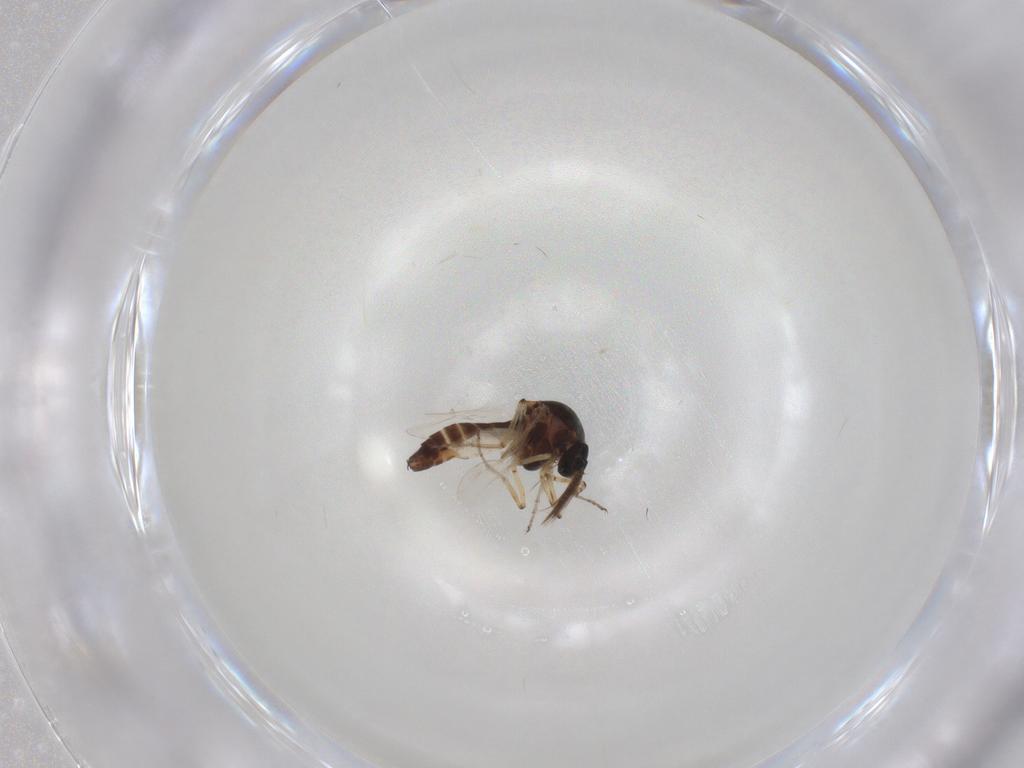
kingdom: Animalia
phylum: Arthropoda
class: Insecta
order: Diptera
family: Ceratopogonidae
